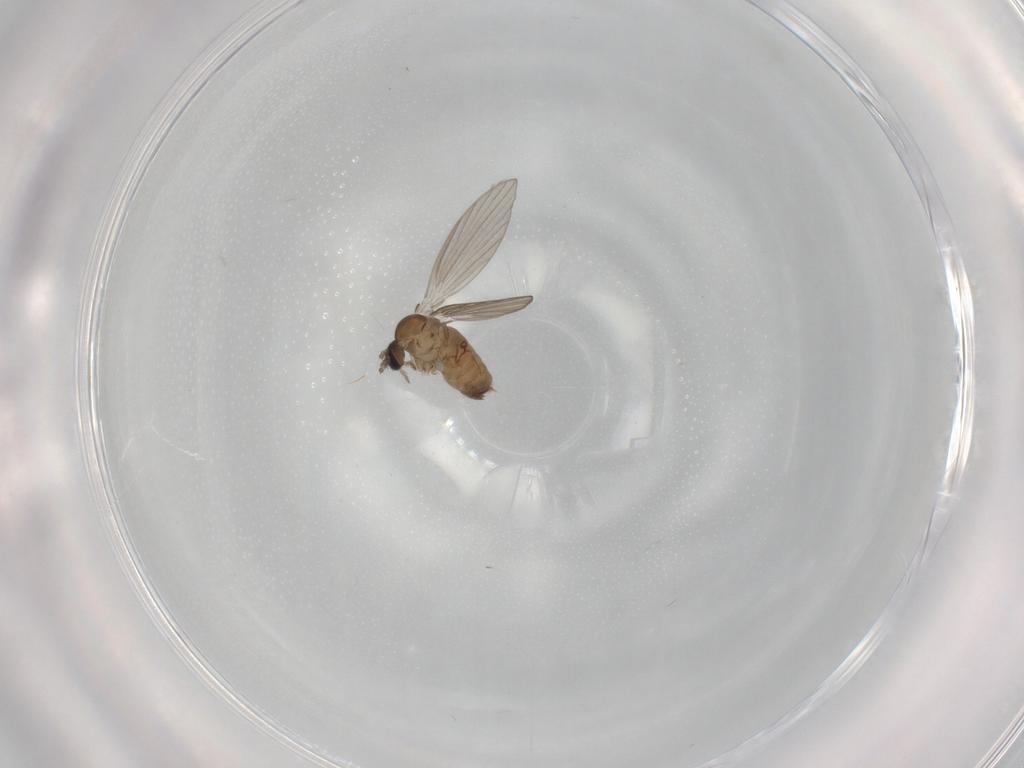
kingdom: Animalia
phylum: Arthropoda
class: Insecta
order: Diptera
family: Psychodidae
